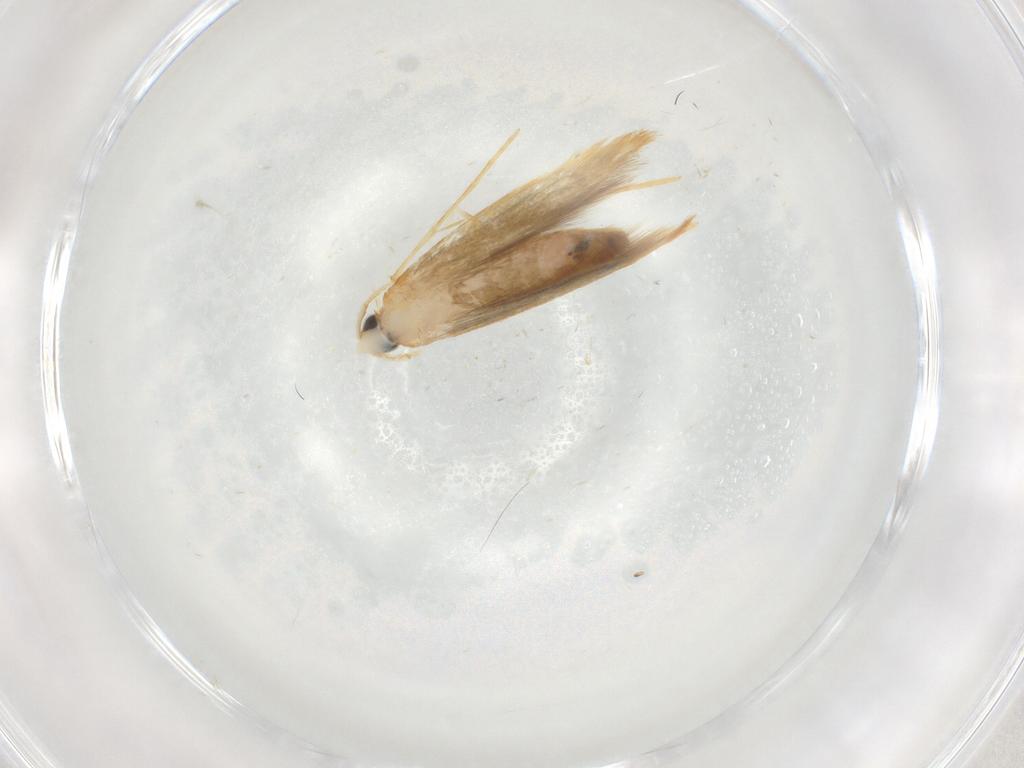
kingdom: Animalia
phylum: Arthropoda
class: Insecta
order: Lepidoptera
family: Tineidae
